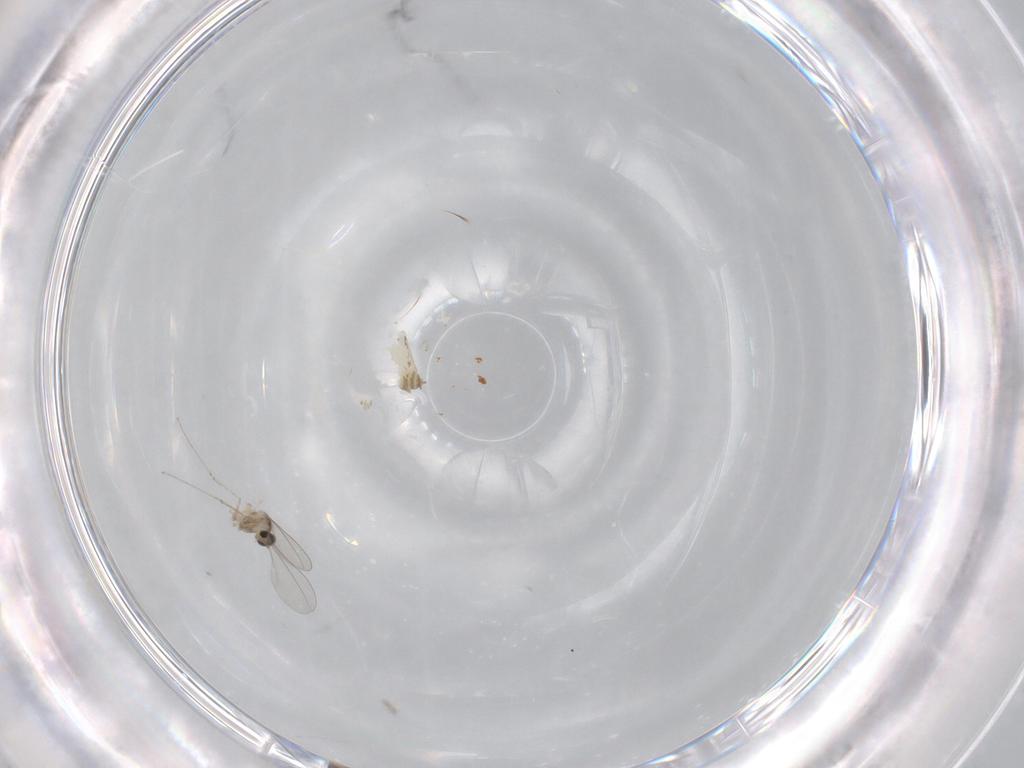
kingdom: Animalia
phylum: Arthropoda
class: Insecta
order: Diptera
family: Cecidomyiidae
